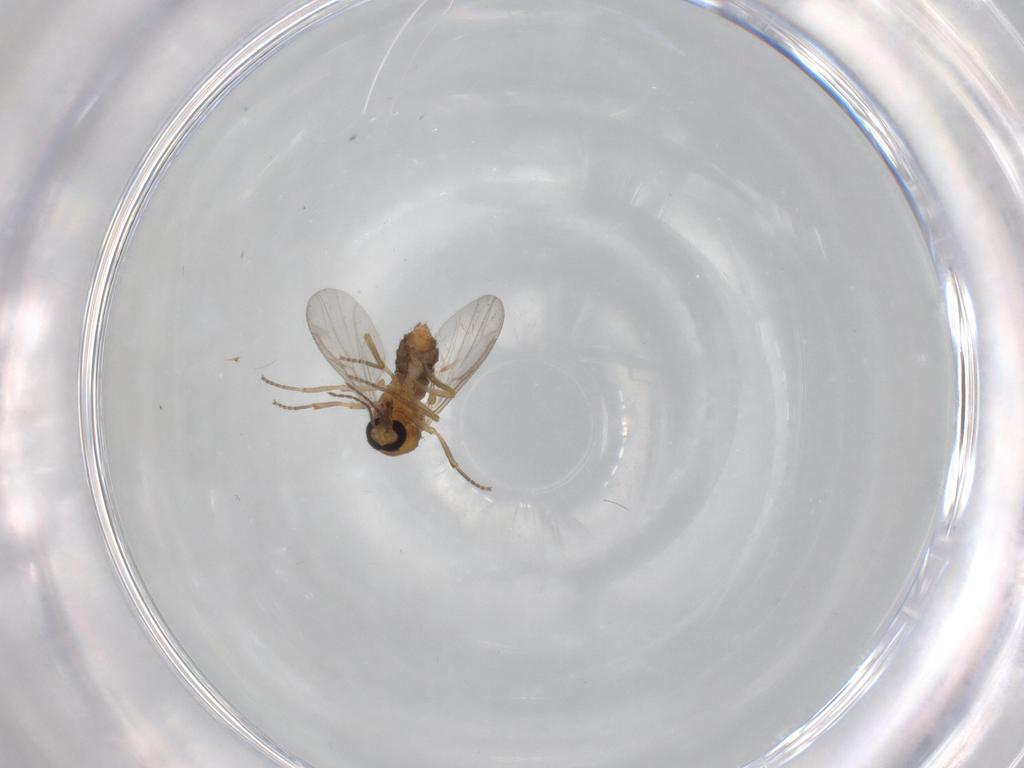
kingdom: Animalia
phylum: Arthropoda
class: Insecta
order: Diptera
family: Ceratopogonidae
